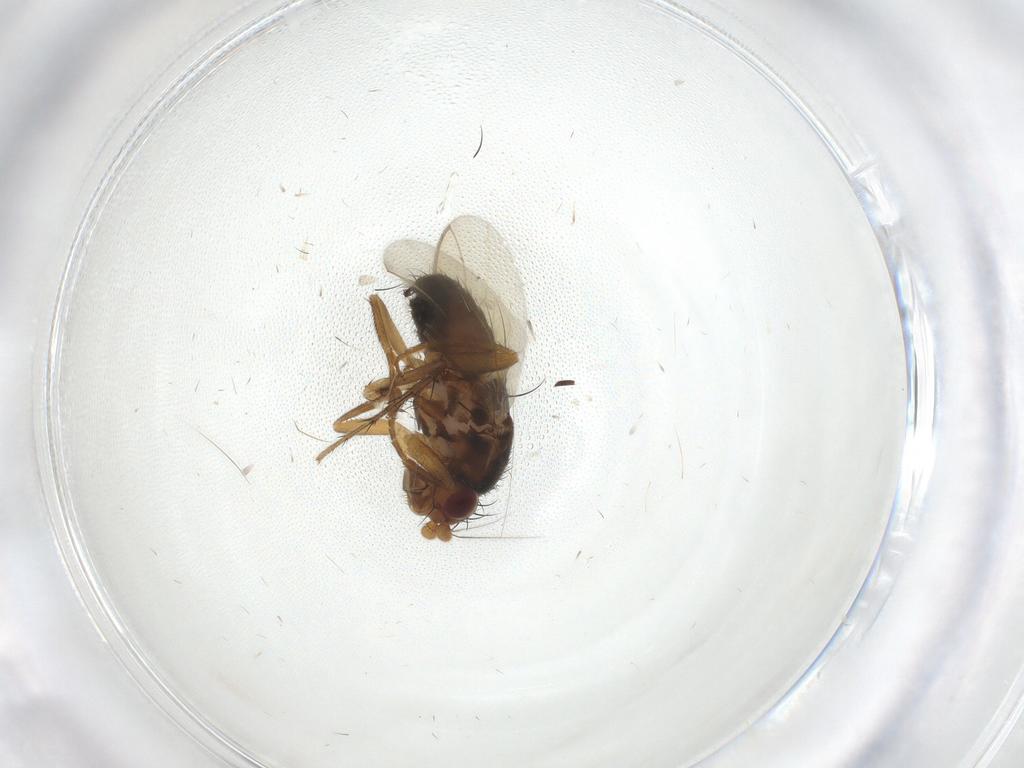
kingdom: Animalia
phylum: Arthropoda
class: Insecta
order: Diptera
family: Sphaeroceridae
